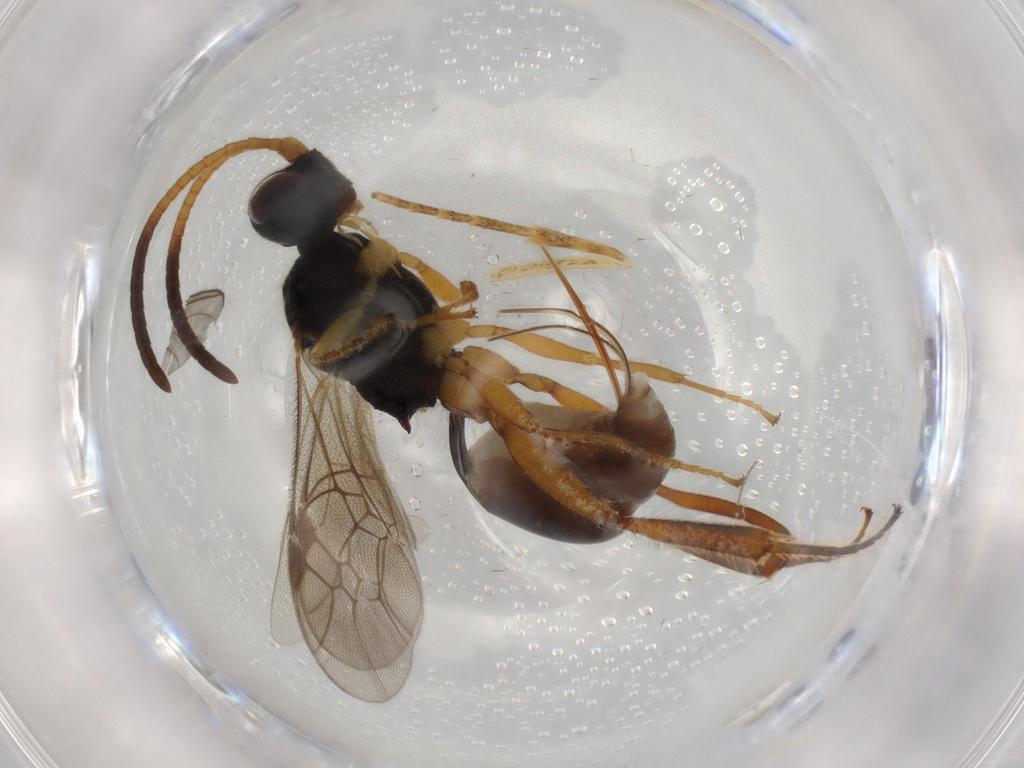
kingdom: Animalia
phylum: Arthropoda
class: Insecta
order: Hymenoptera
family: Ichneumonidae
